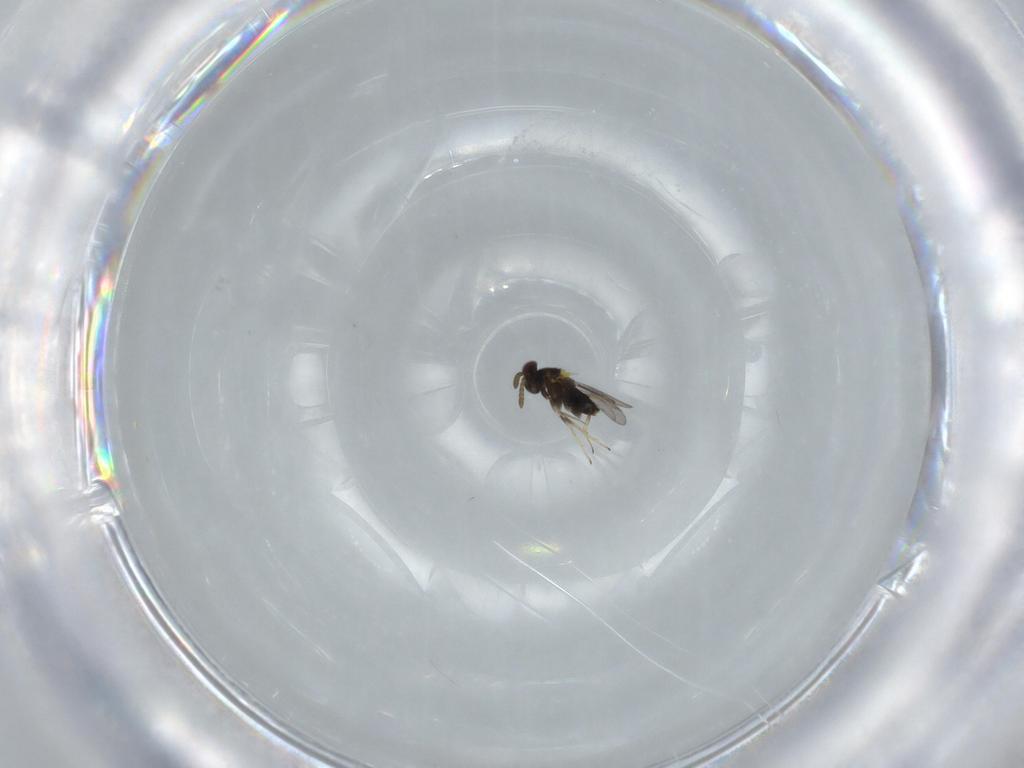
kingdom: Animalia
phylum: Arthropoda
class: Insecta
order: Hymenoptera
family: Aphelinidae
